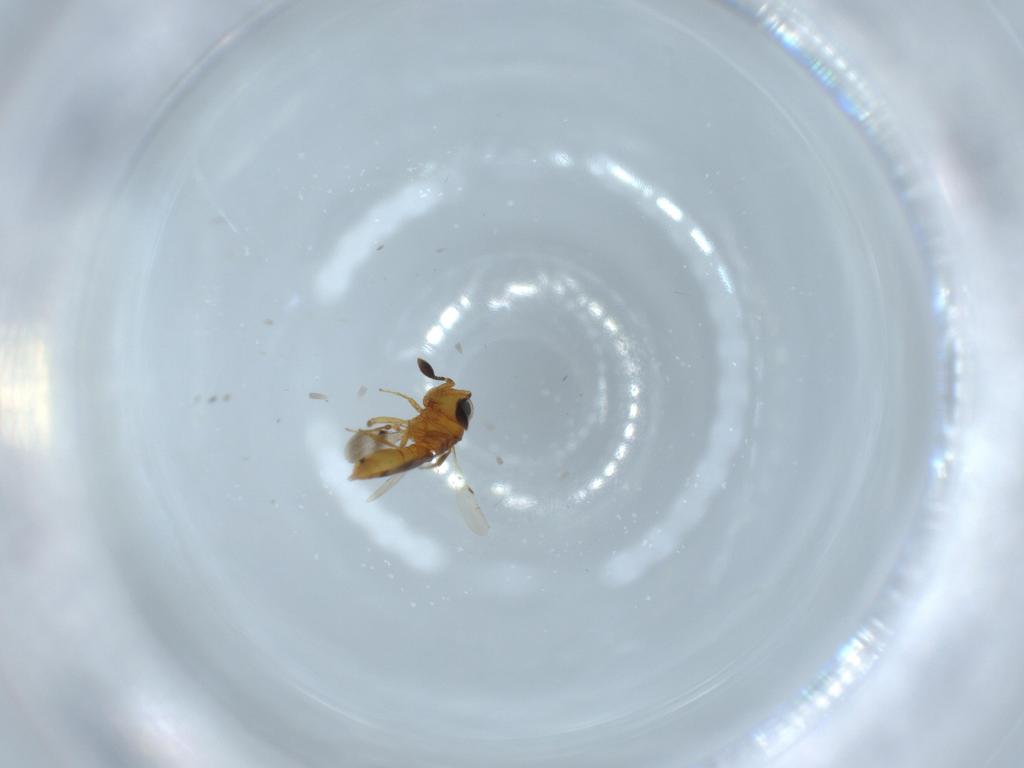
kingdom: Animalia
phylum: Arthropoda
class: Insecta
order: Hymenoptera
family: Scelionidae
